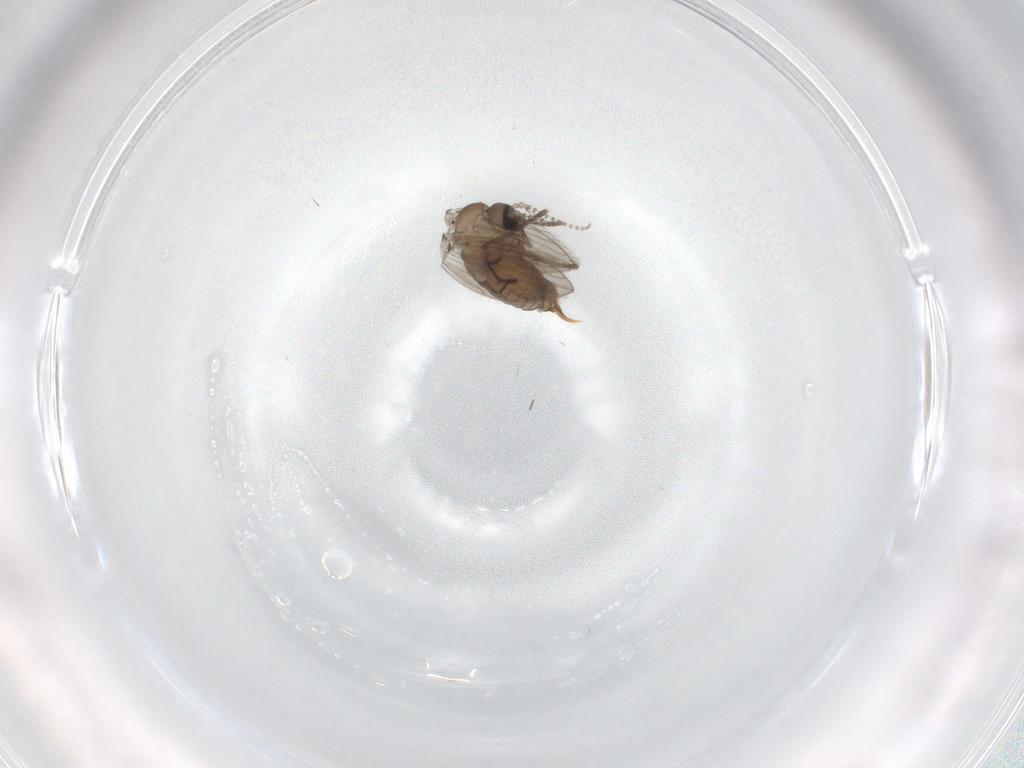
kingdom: Animalia
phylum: Arthropoda
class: Insecta
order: Diptera
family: Psychodidae
